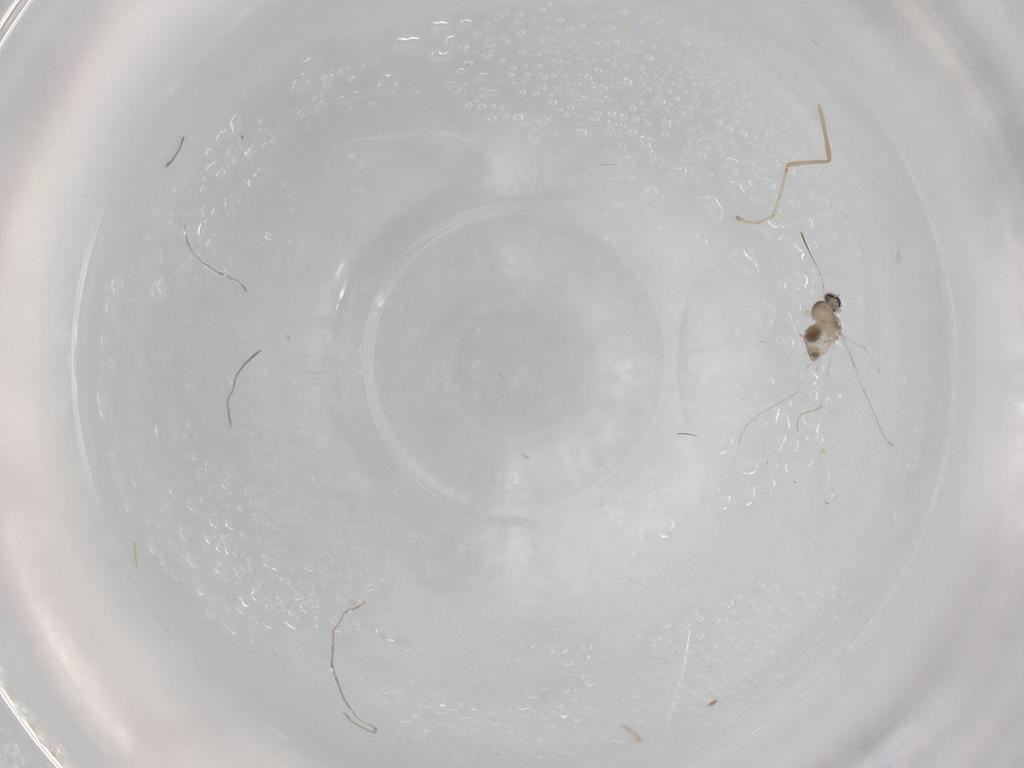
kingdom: Animalia
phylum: Arthropoda
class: Insecta
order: Diptera
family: Cecidomyiidae
